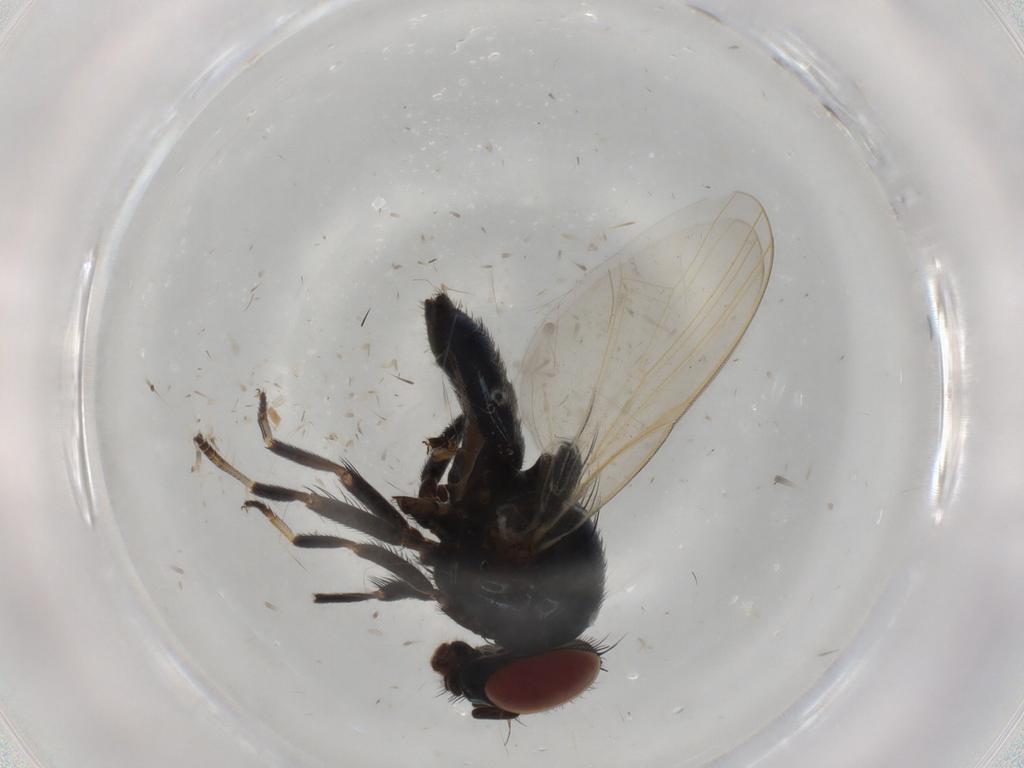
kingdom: Animalia
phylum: Arthropoda
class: Insecta
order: Diptera
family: Lonchaeidae
